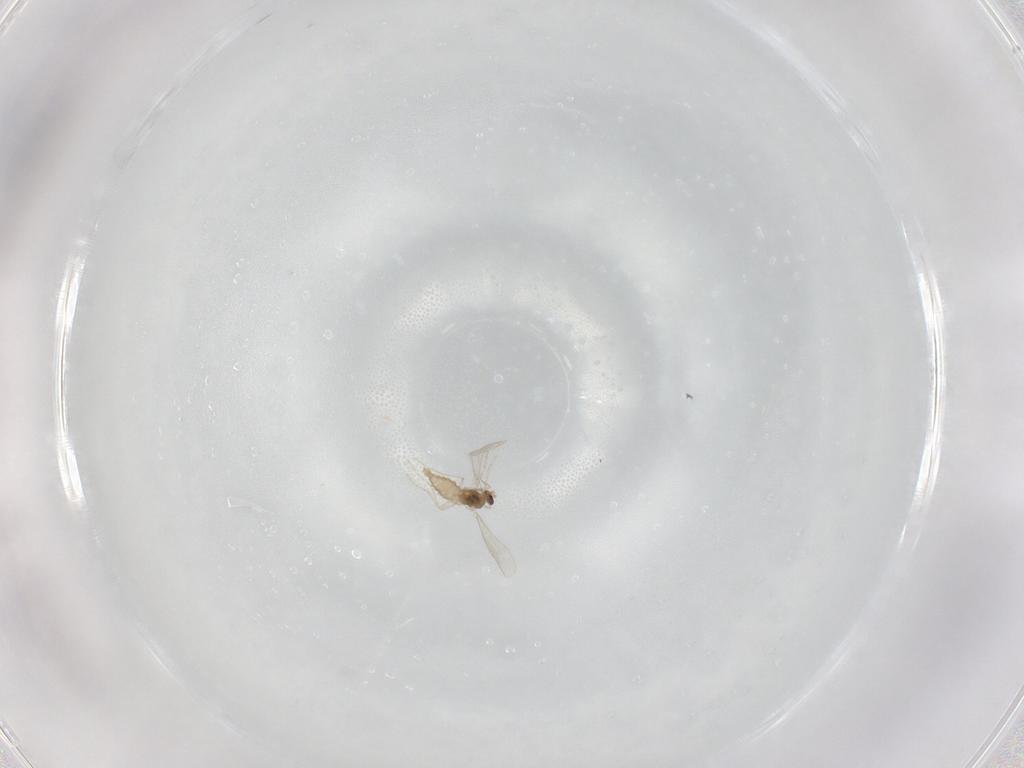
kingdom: Animalia
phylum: Arthropoda
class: Insecta
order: Diptera
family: Cecidomyiidae
